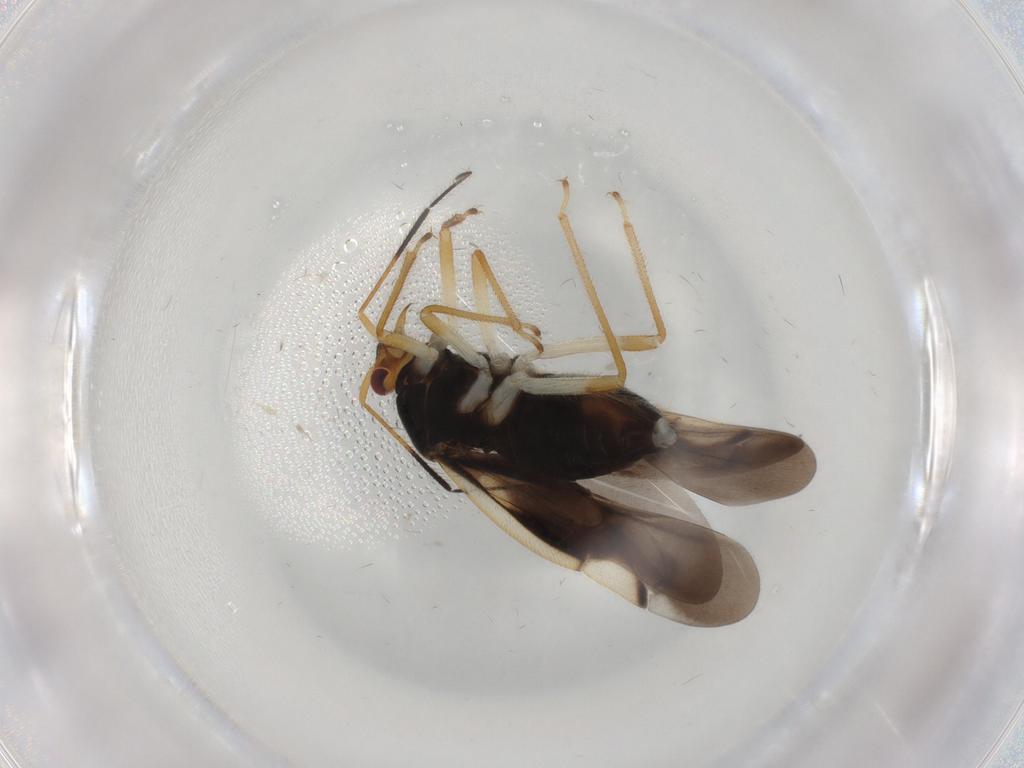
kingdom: Animalia
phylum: Arthropoda
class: Insecta
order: Hemiptera
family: Miridae
